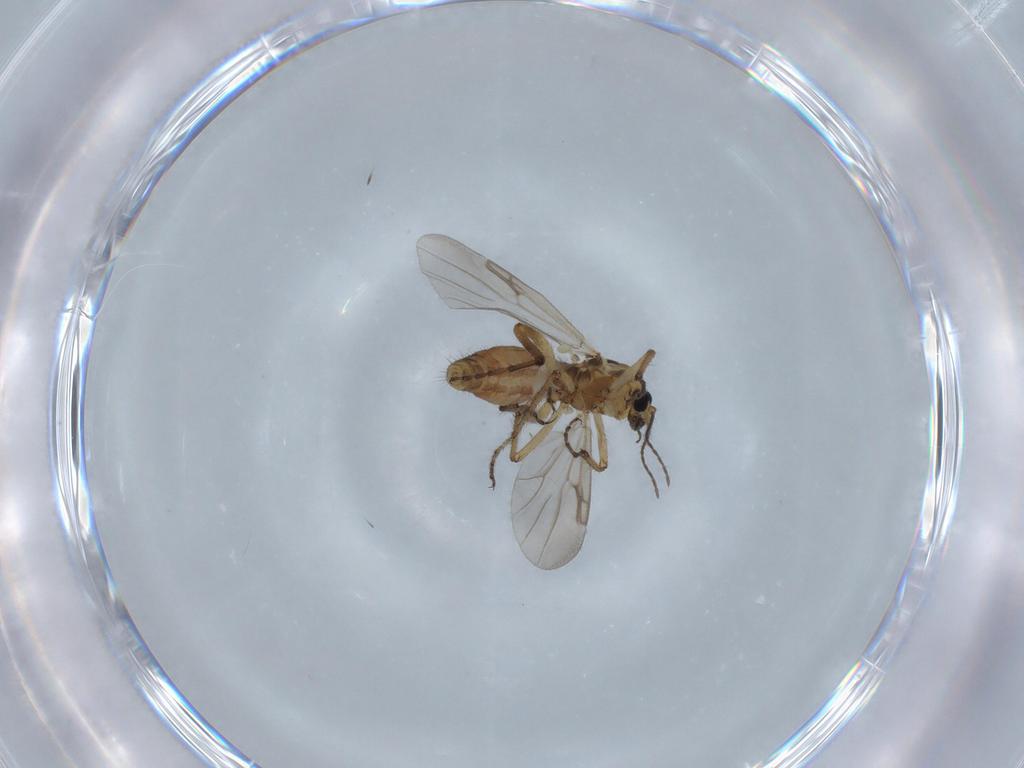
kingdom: Animalia
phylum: Arthropoda
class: Insecta
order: Diptera
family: Ceratopogonidae
